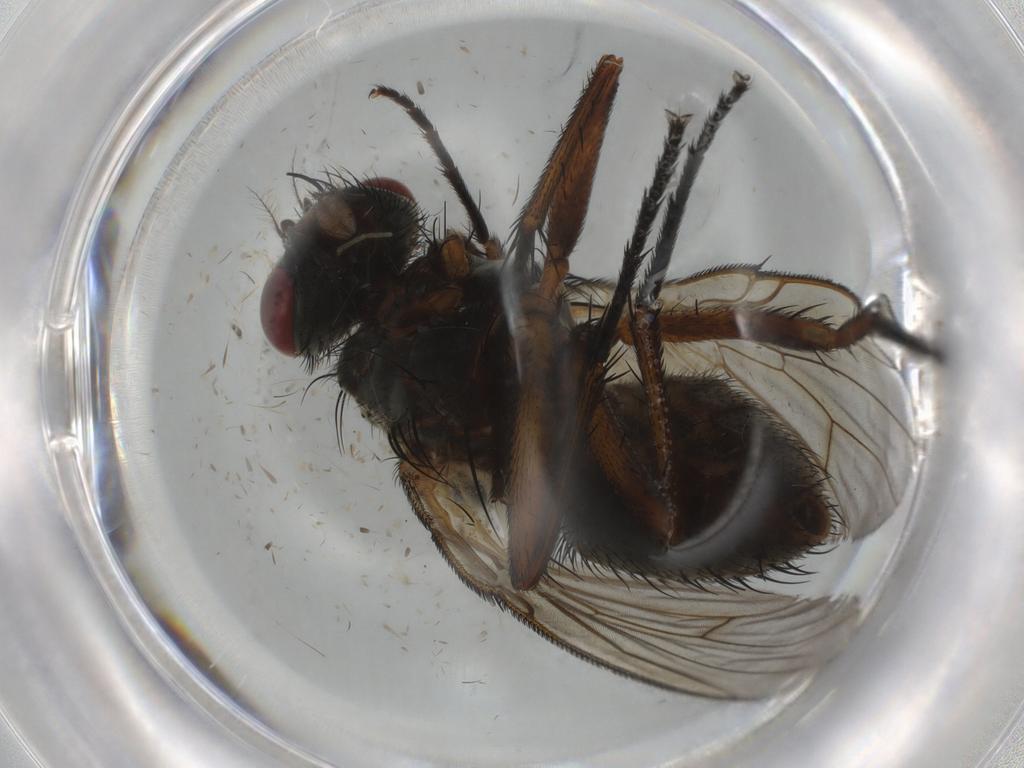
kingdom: Animalia
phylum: Arthropoda
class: Insecta
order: Diptera
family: Muscidae
